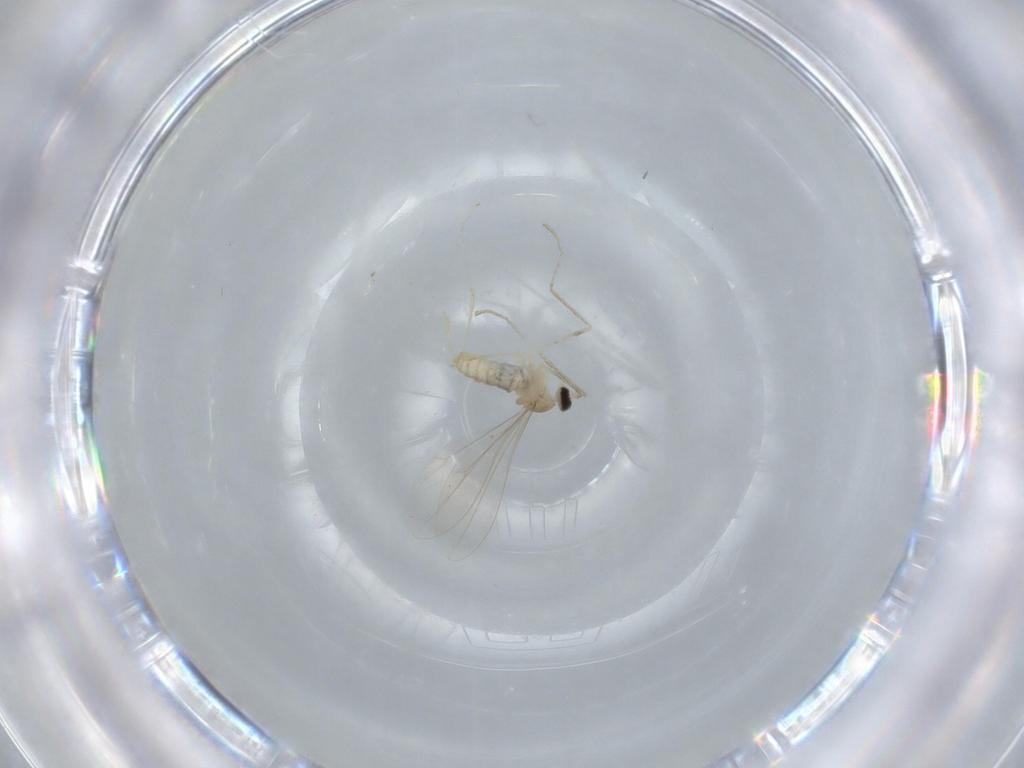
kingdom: Animalia
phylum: Arthropoda
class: Insecta
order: Diptera
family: Cecidomyiidae
